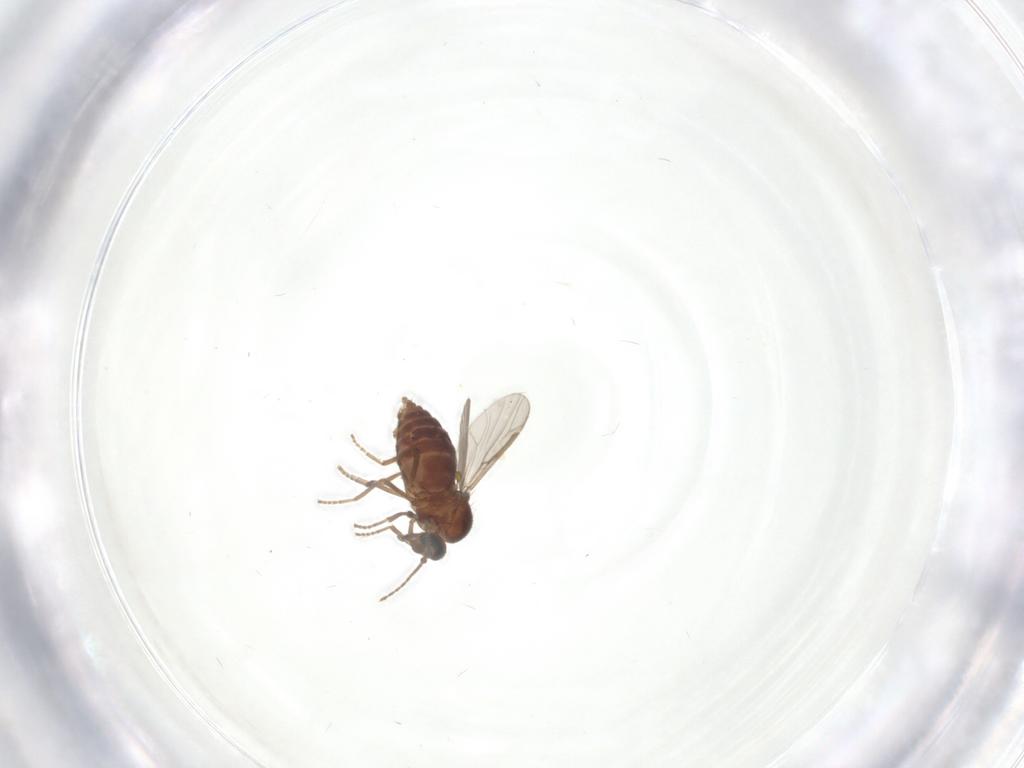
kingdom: Animalia
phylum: Arthropoda
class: Insecta
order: Diptera
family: Ceratopogonidae
